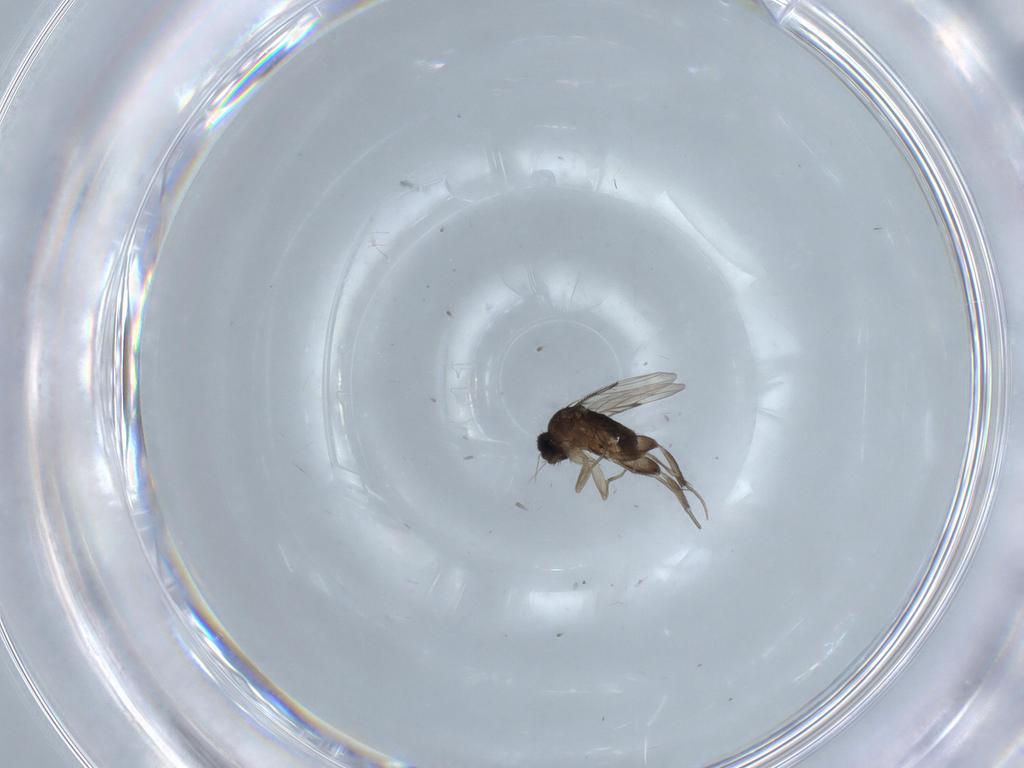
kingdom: Animalia
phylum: Arthropoda
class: Insecta
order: Diptera
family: Phoridae
